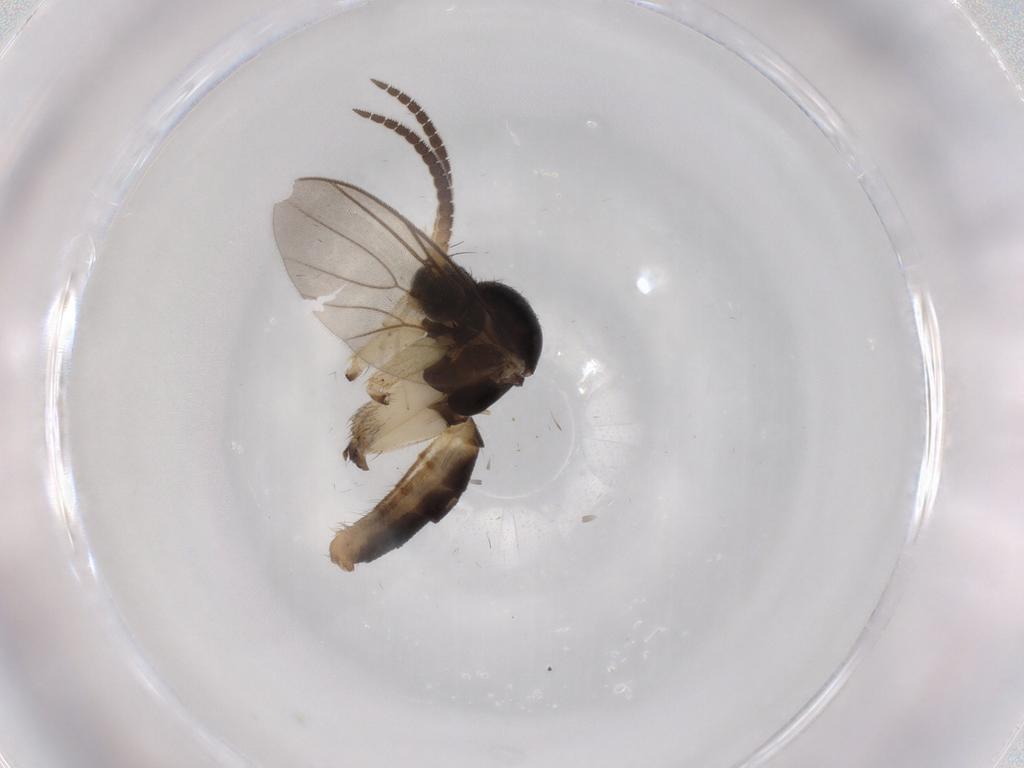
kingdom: Animalia
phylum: Arthropoda
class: Insecta
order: Diptera
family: Mycetophilidae
